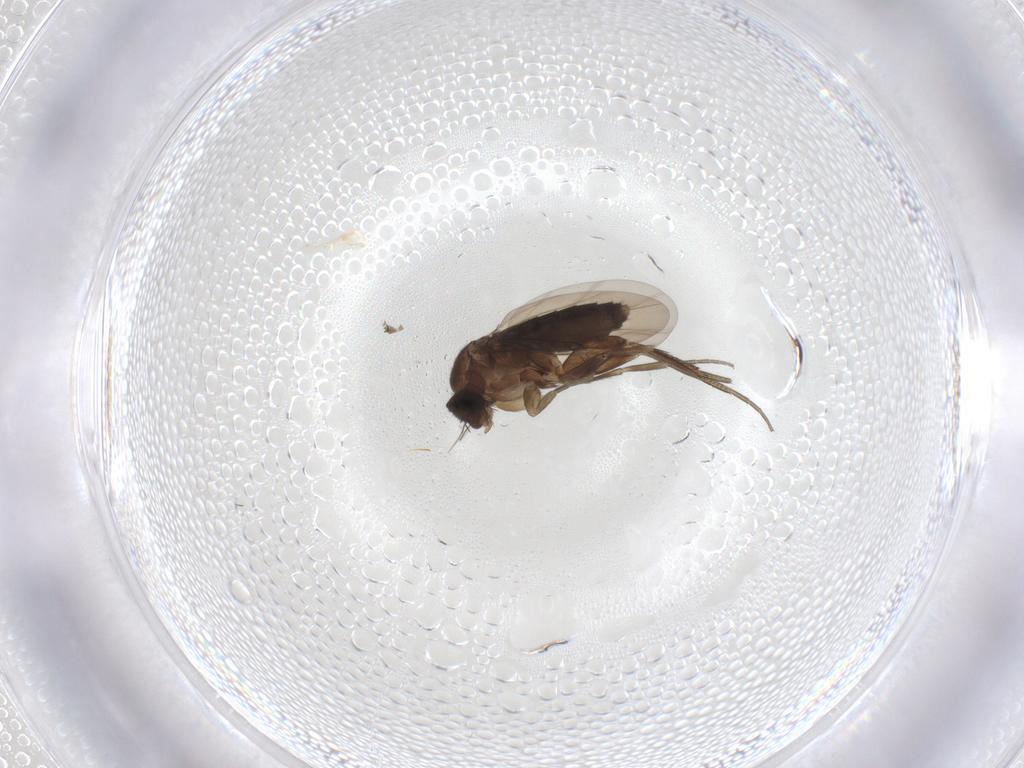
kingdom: Animalia
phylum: Arthropoda
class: Insecta
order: Diptera
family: Phoridae
